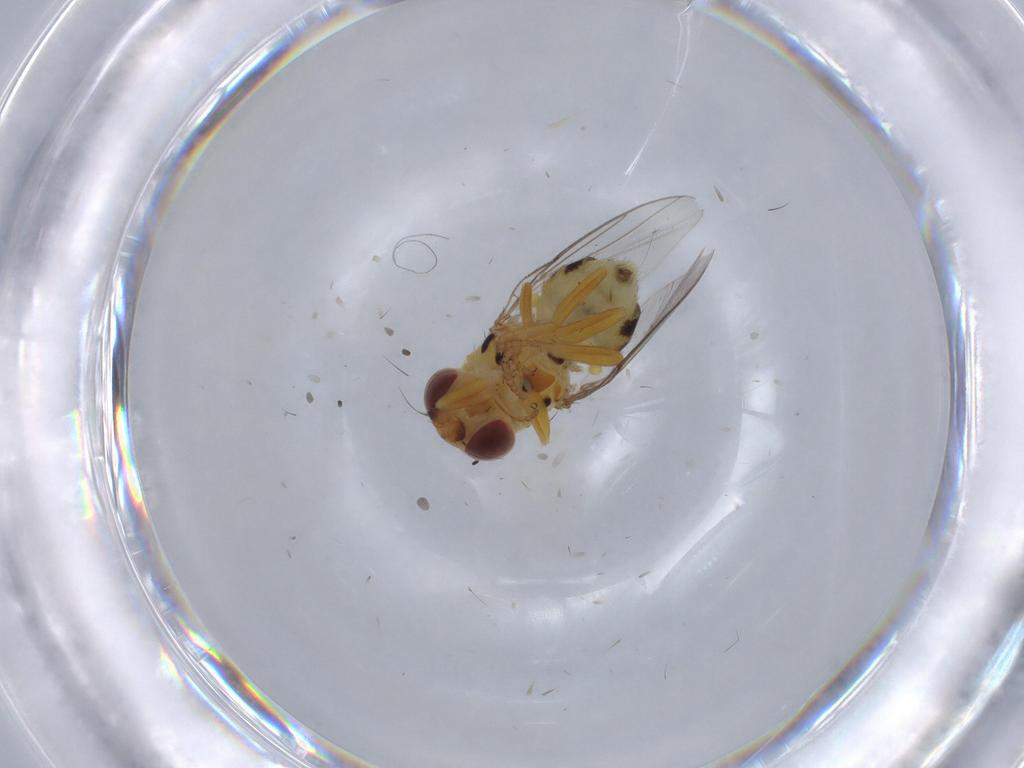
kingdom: Animalia
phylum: Arthropoda
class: Insecta
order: Diptera
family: Chloropidae
